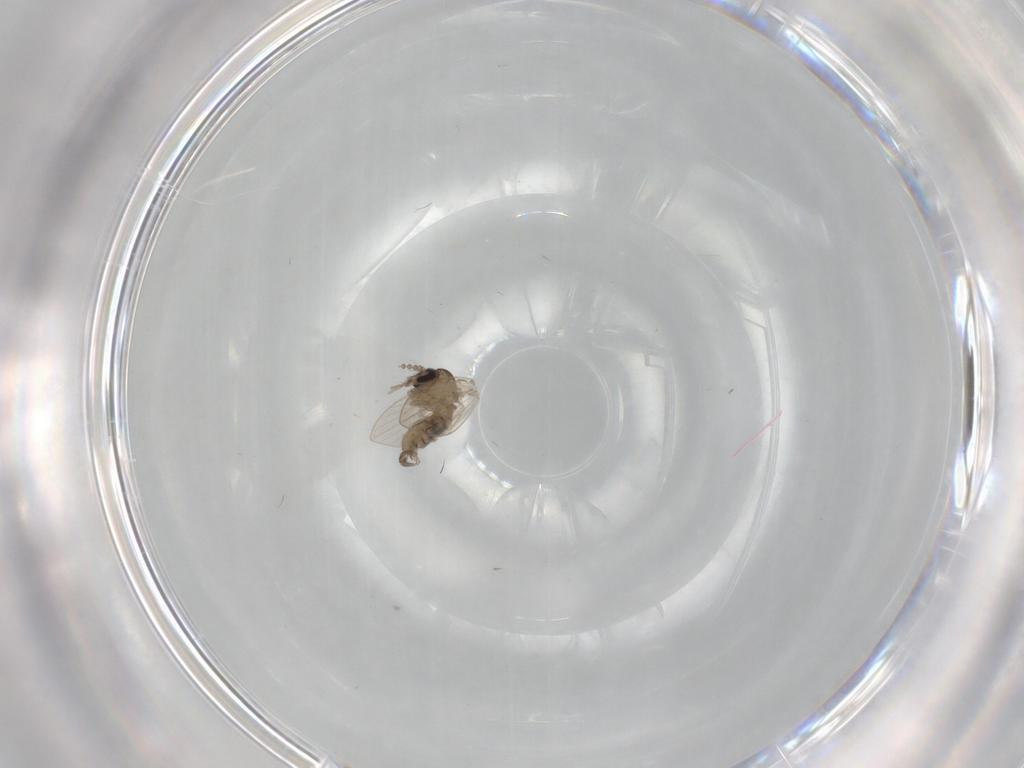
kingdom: Animalia
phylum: Arthropoda
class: Insecta
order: Diptera
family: Psychodidae
